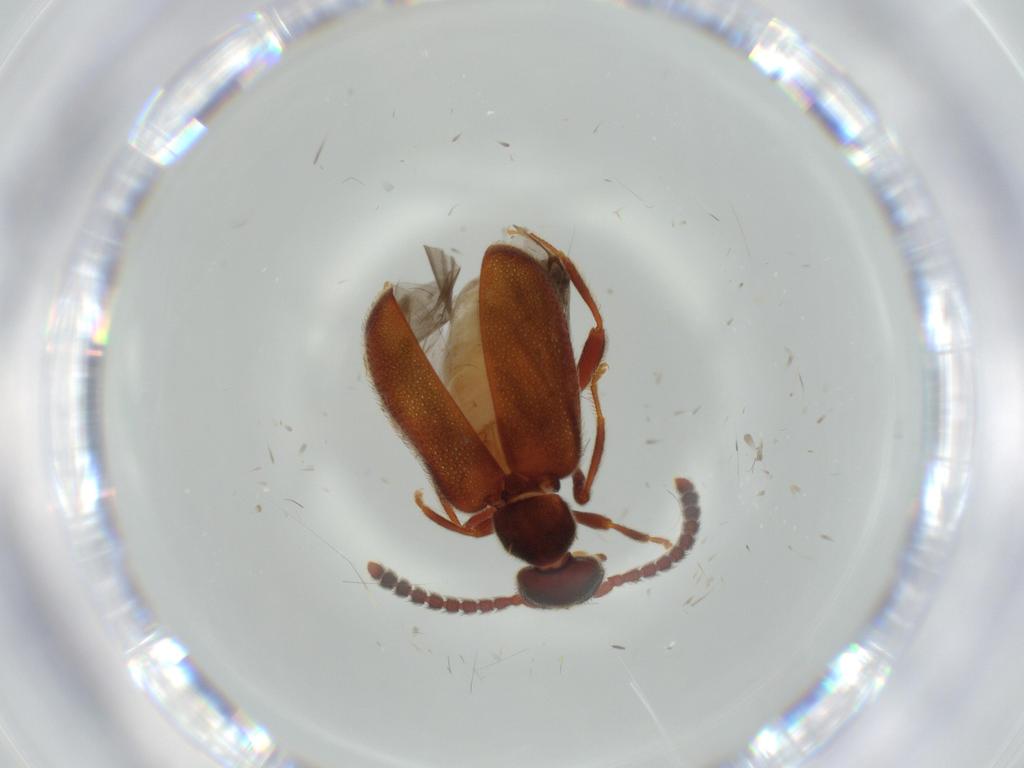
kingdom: Animalia
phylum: Arthropoda
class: Insecta
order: Coleoptera
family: Curculionidae
